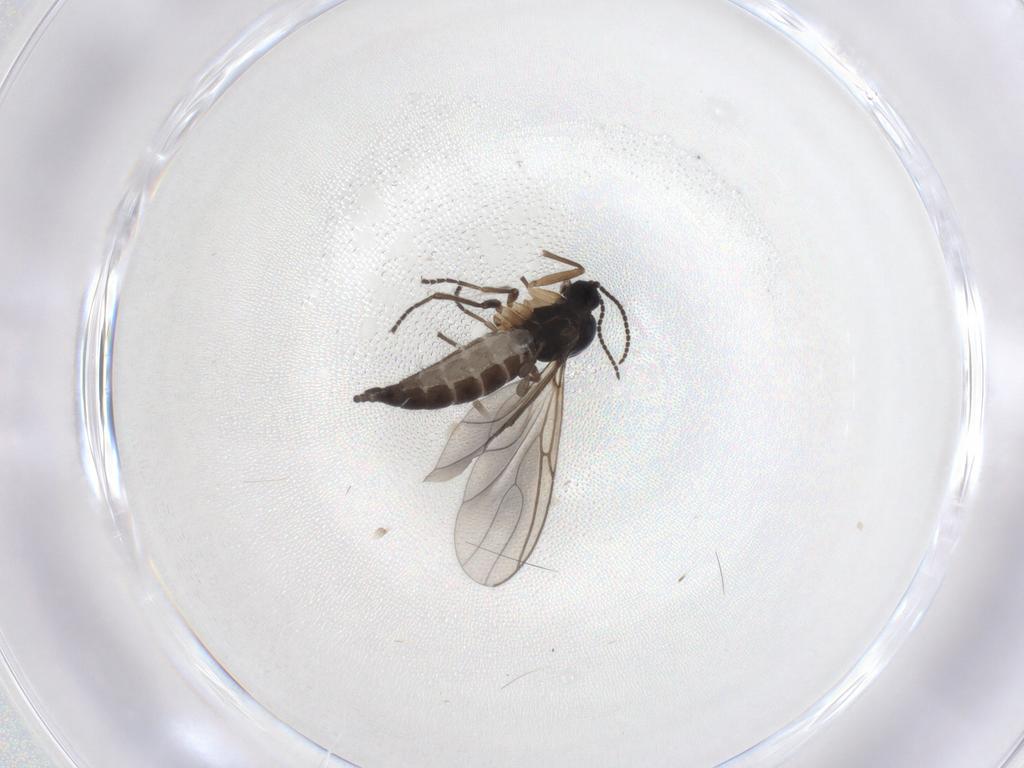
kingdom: Animalia
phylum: Arthropoda
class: Insecta
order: Diptera
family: Sciaridae
